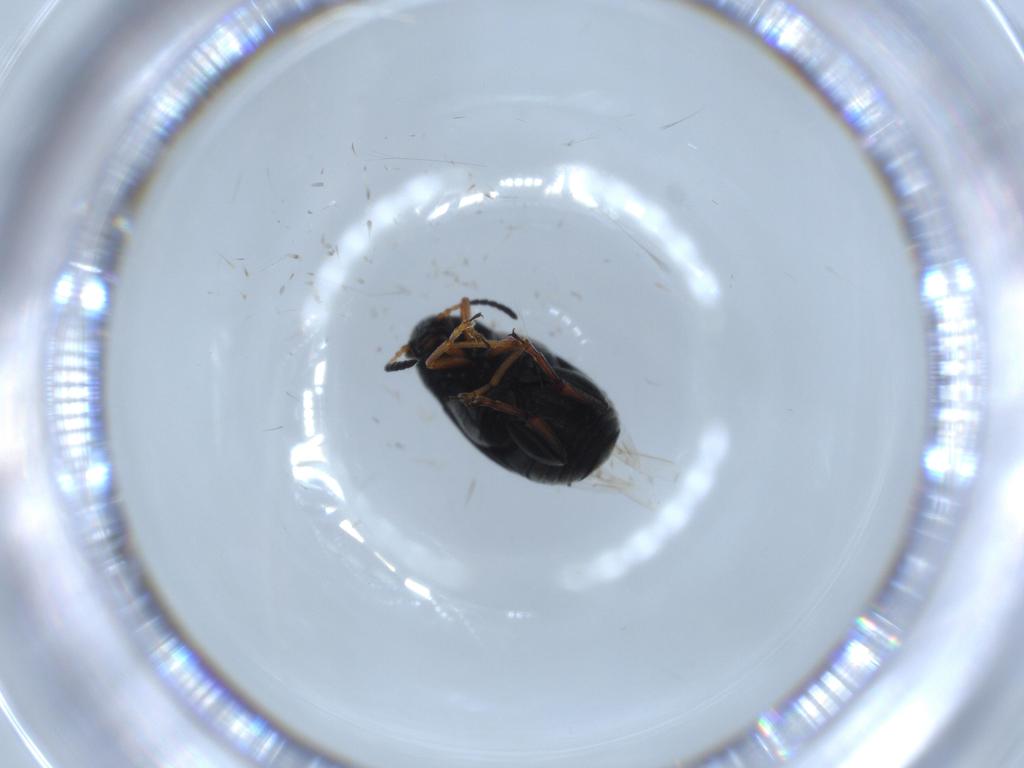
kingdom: Animalia
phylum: Arthropoda
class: Insecta
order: Coleoptera
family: Chrysomelidae
